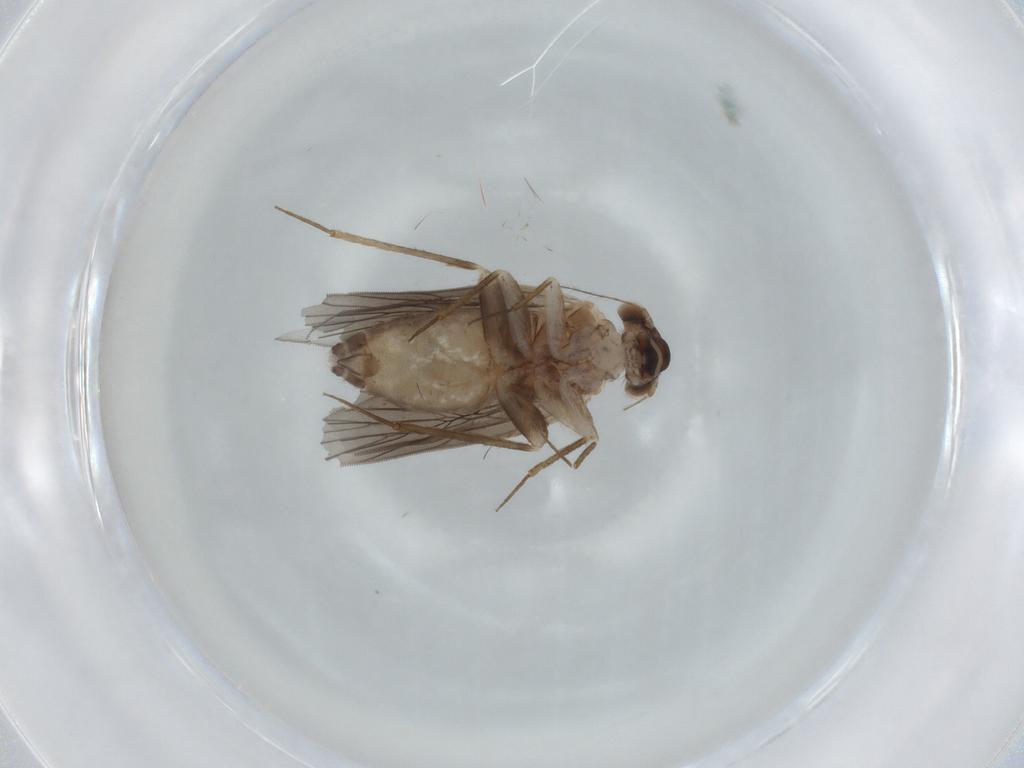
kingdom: Animalia
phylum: Arthropoda
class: Insecta
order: Psocodea
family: Lepidopsocidae
